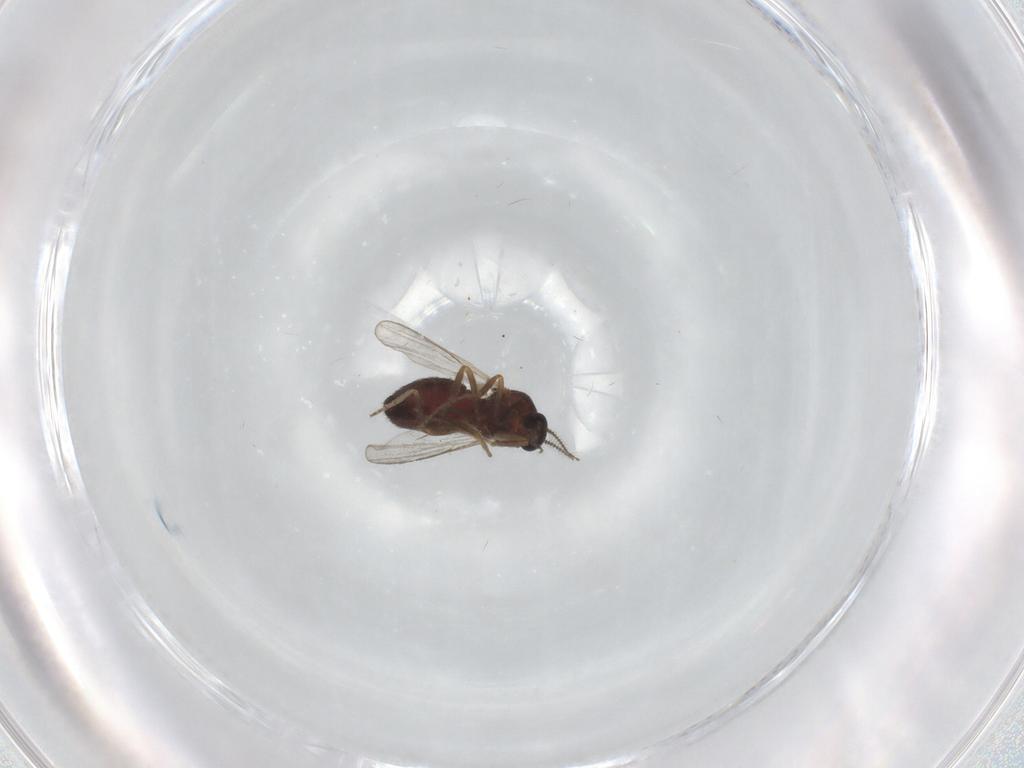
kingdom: Animalia
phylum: Arthropoda
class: Insecta
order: Diptera
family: Ceratopogonidae
